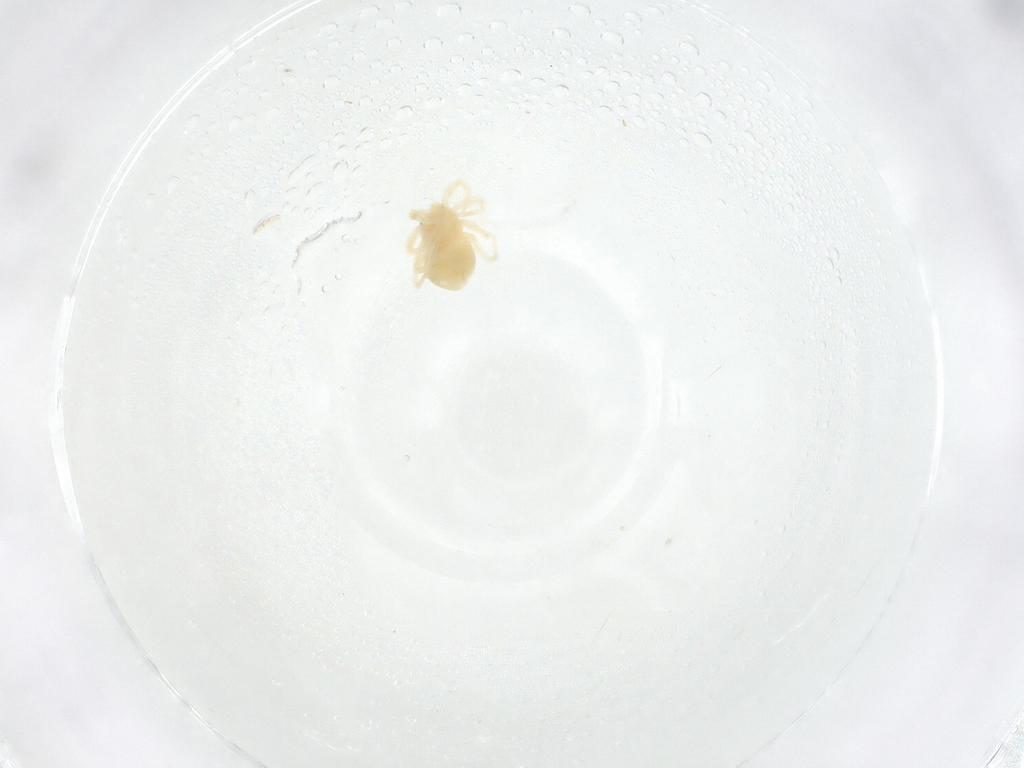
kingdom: Animalia
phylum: Arthropoda
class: Arachnida
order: Trombidiformes
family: Anystidae
